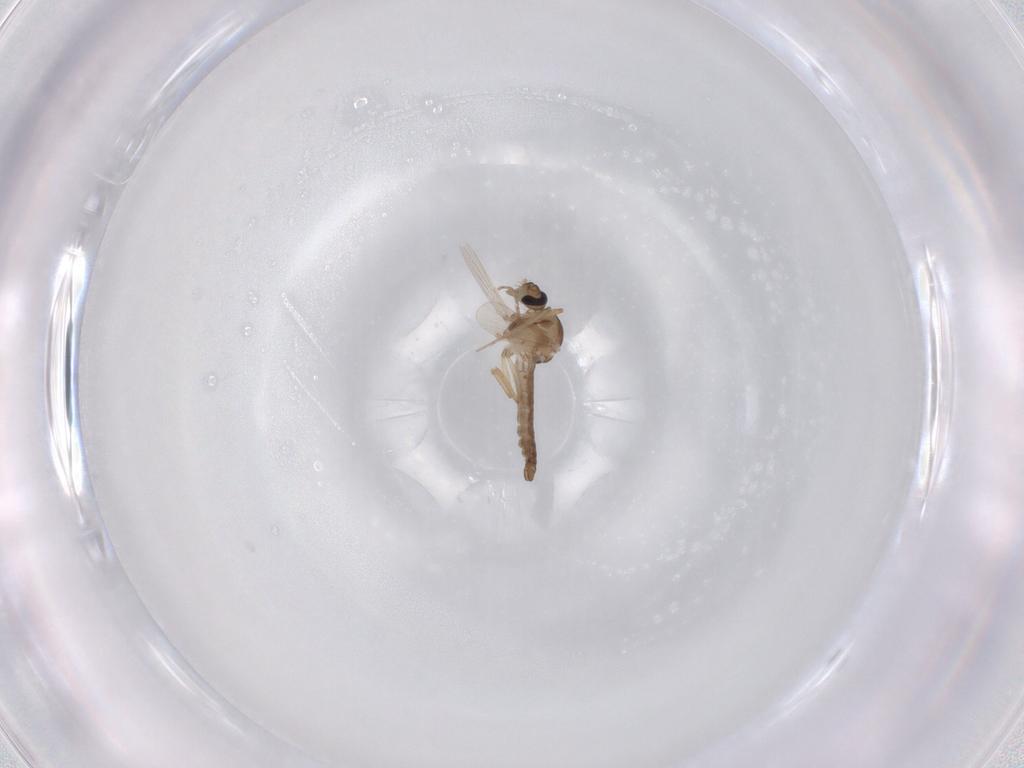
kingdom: Animalia
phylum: Arthropoda
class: Insecta
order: Diptera
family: Ceratopogonidae
